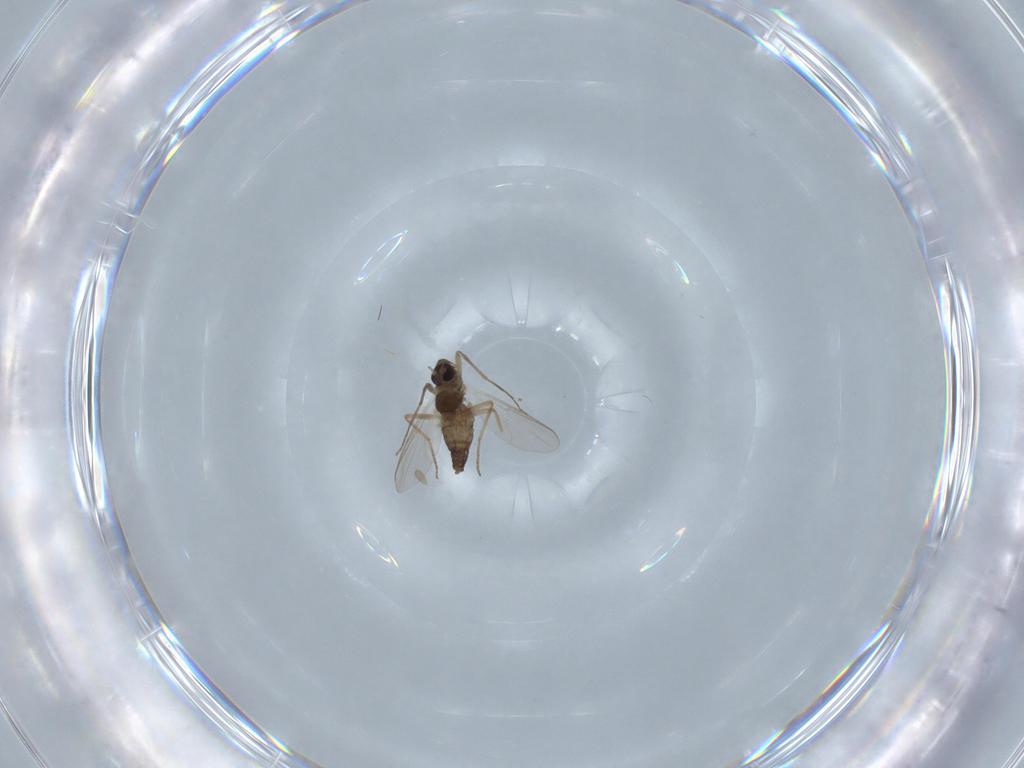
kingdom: Animalia
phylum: Arthropoda
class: Insecta
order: Diptera
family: Chironomidae
